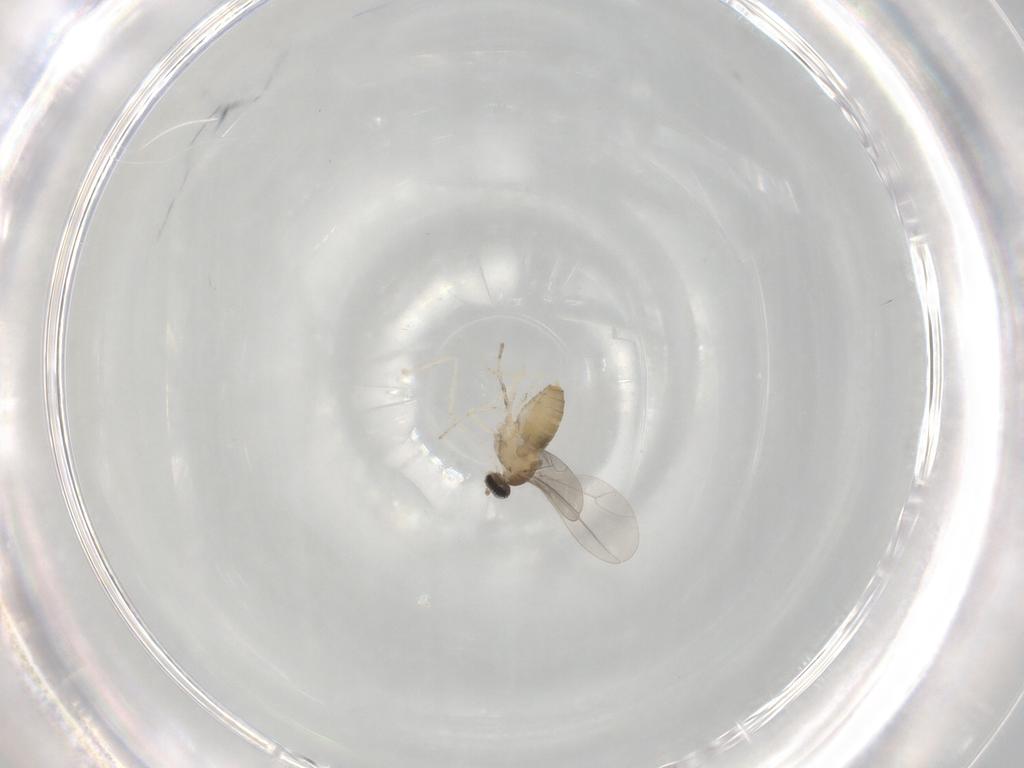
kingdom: Animalia
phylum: Arthropoda
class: Insecta
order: Diptera
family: Cecidomyiidae
